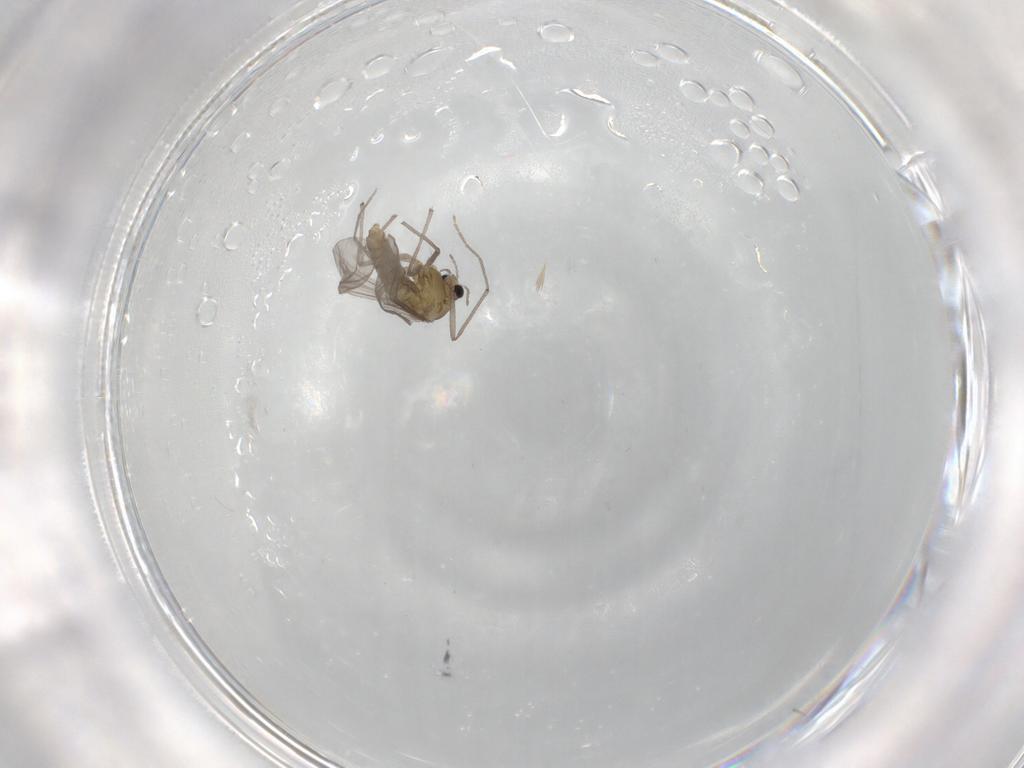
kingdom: Animalia
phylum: Arthropoda
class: Insecta
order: Diptera
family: Chironomidae
